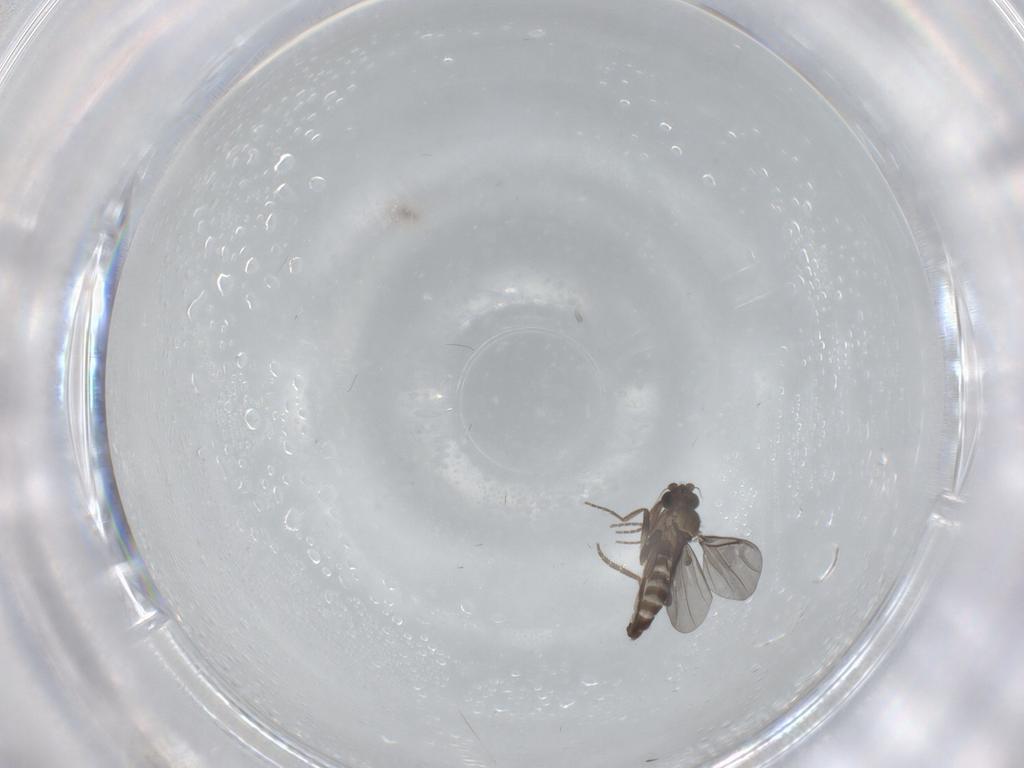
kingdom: Animalia
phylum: Arthropoda
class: Insecta
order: Diptera
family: Phoridae
